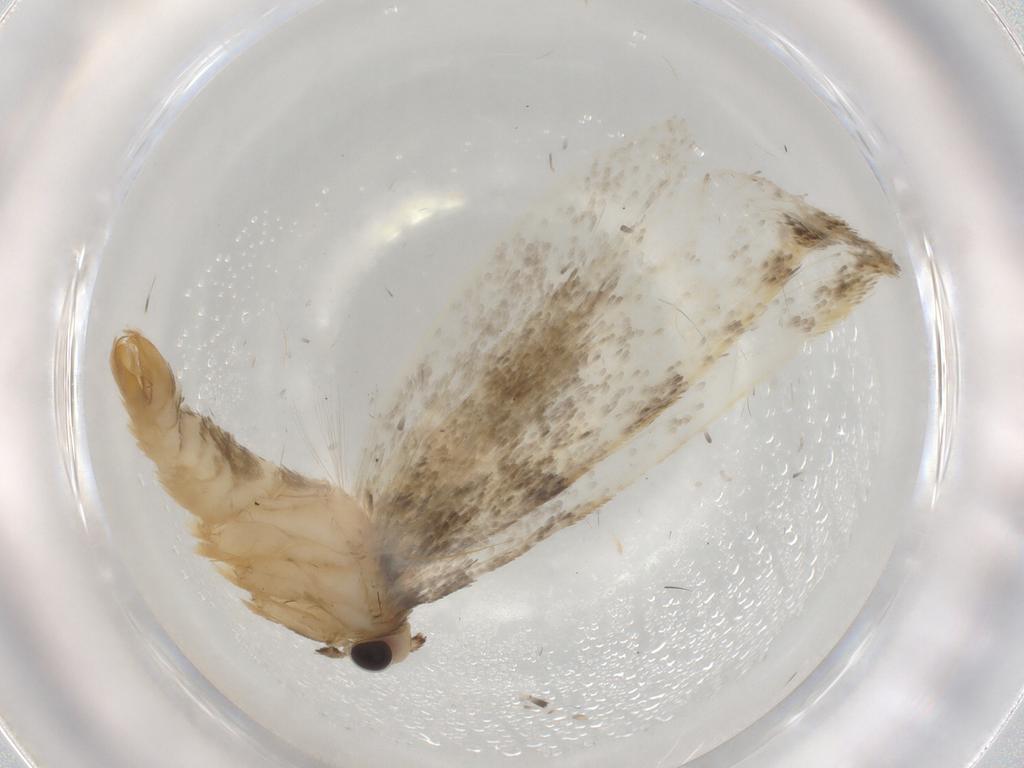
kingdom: Animalia
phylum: Arthropoda
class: Insecta
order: Lepidoptera
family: Tineidae
